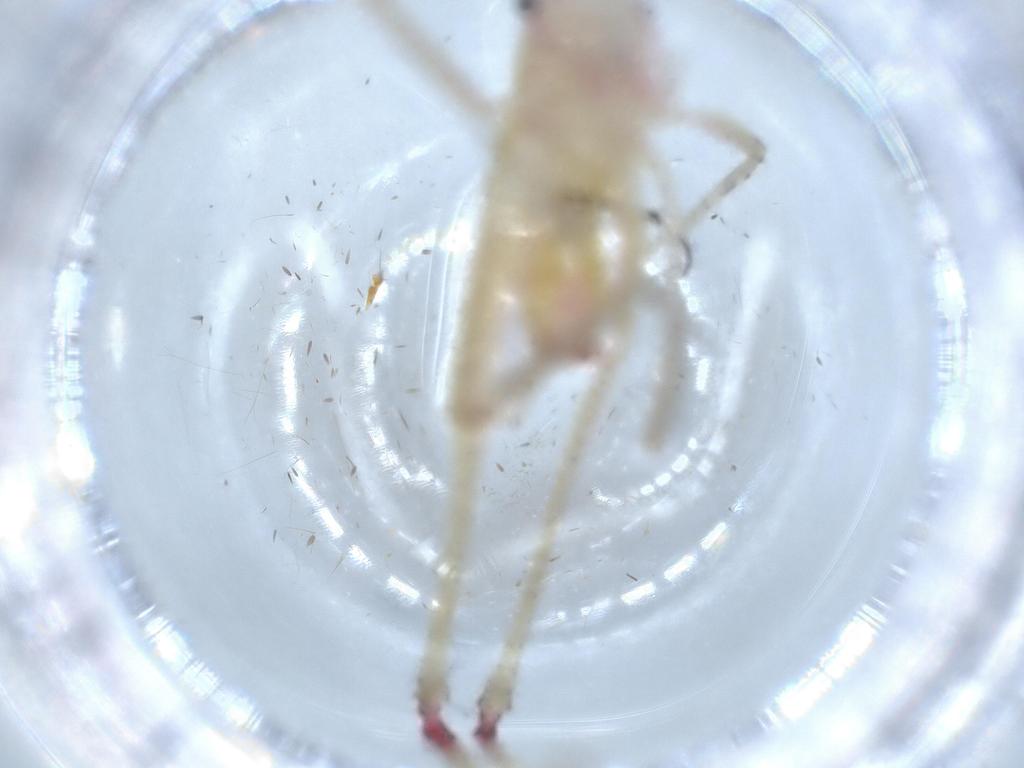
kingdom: Animalia
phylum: Arthropoda
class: Insecta
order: Orthoptera
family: Tettigoniidae
